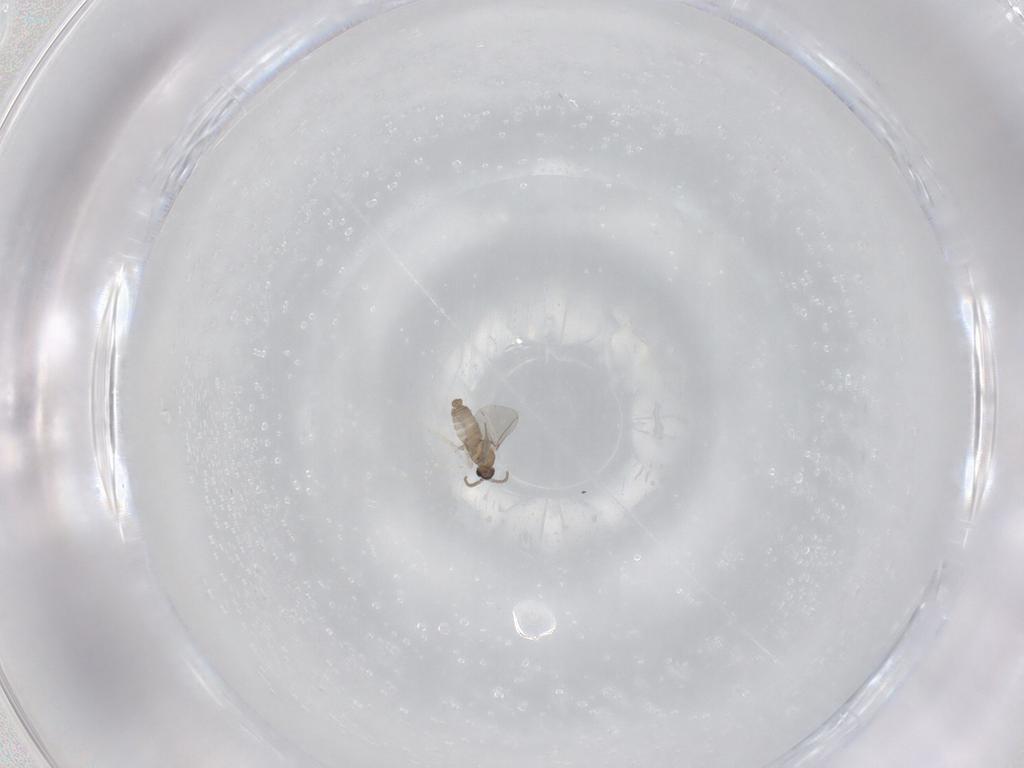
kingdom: Animalia
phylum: Arthropoda
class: Insecta
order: Diptera
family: Cecidomyiidae
